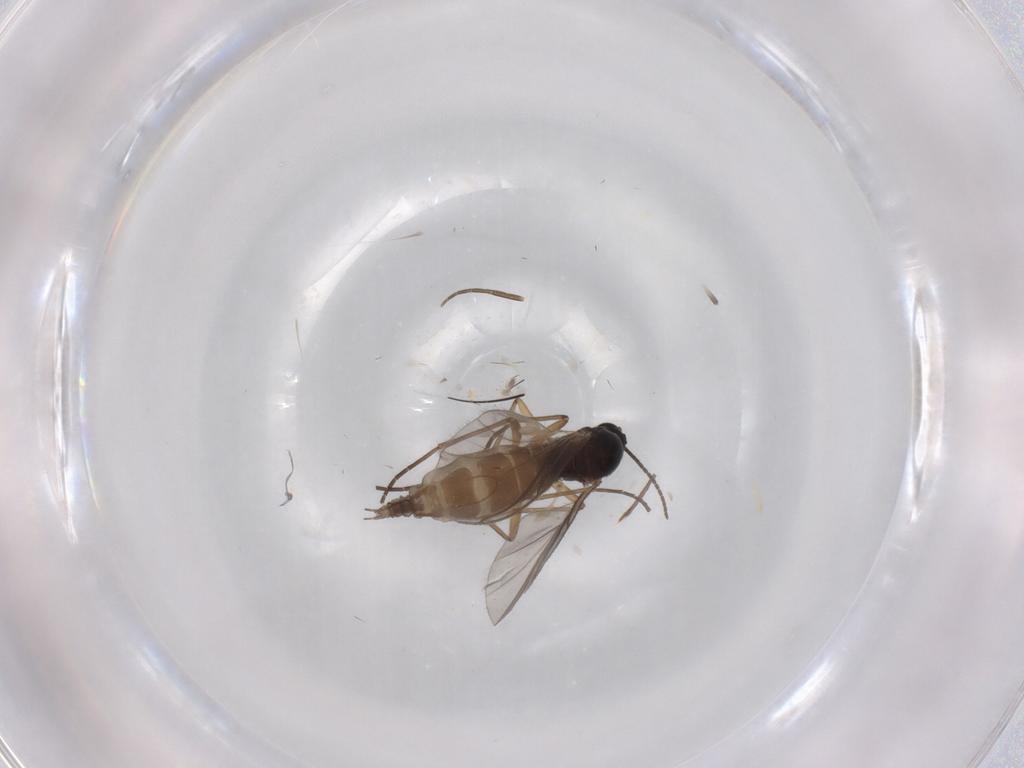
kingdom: Animalia
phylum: Arthropoda
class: Insecta
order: Diptera
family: Sciaridae
